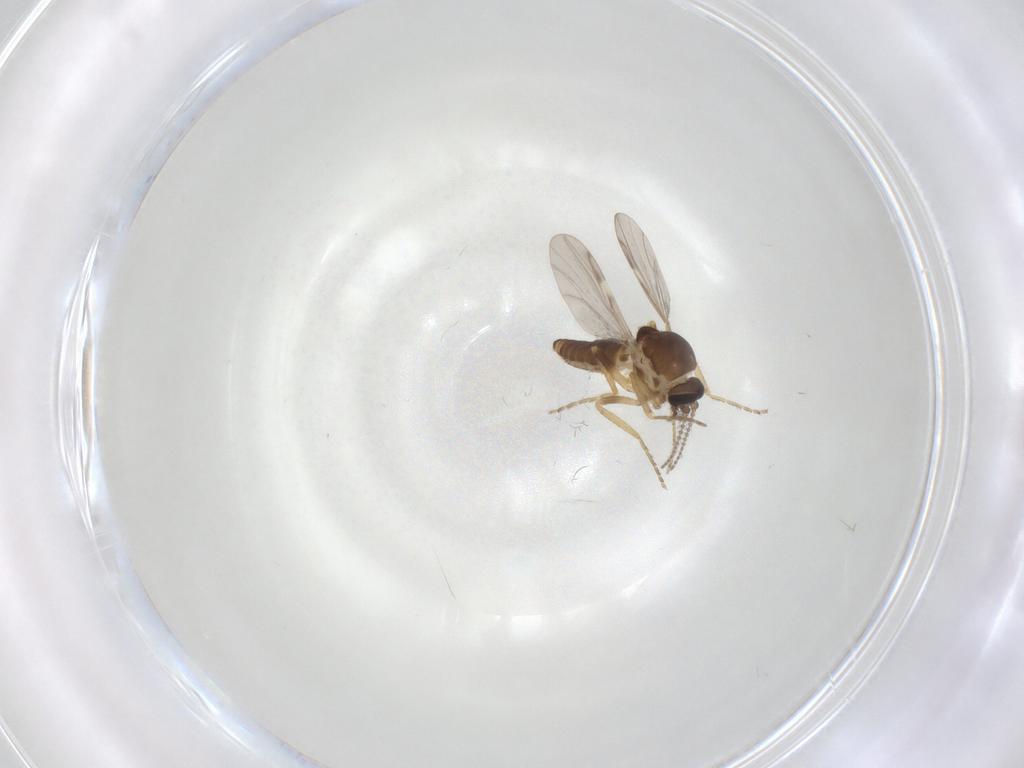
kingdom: Animalia
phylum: Arthropoda
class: Insecta
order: Diptera
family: Ceratopogonidae
